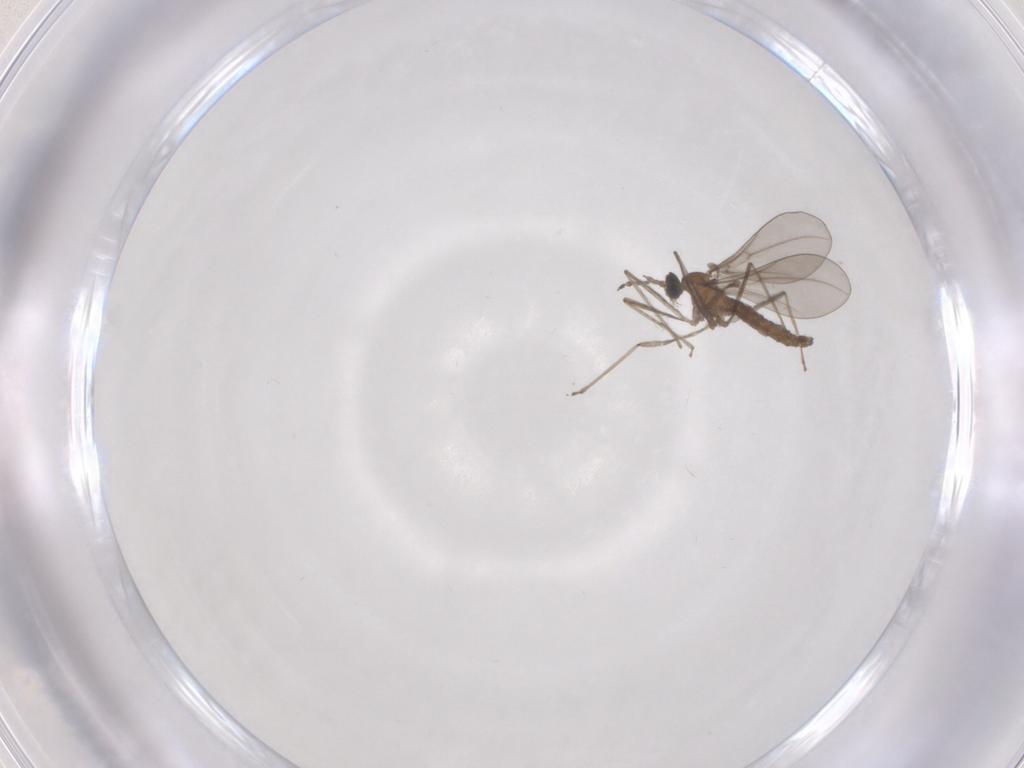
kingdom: Animalia
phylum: Arthropoda
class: Insecta
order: Diptera
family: Cecidomyiidae
